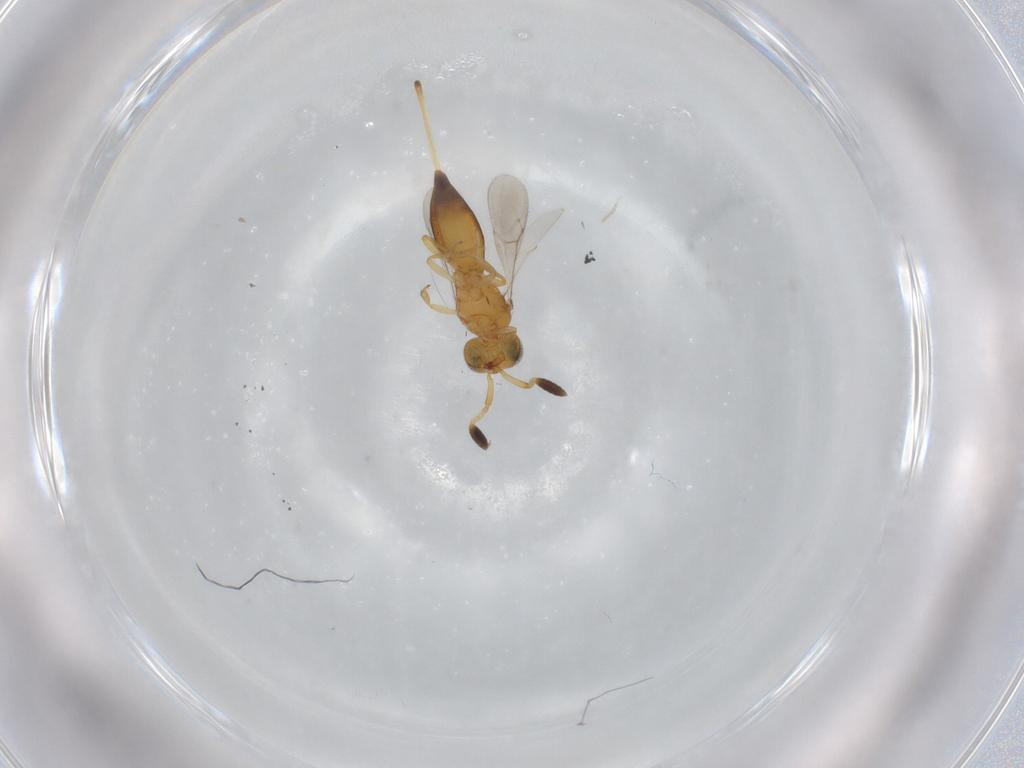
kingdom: Animalia
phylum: Arthropoda
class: Insecta
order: Hymenoptera
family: Scelionidae
